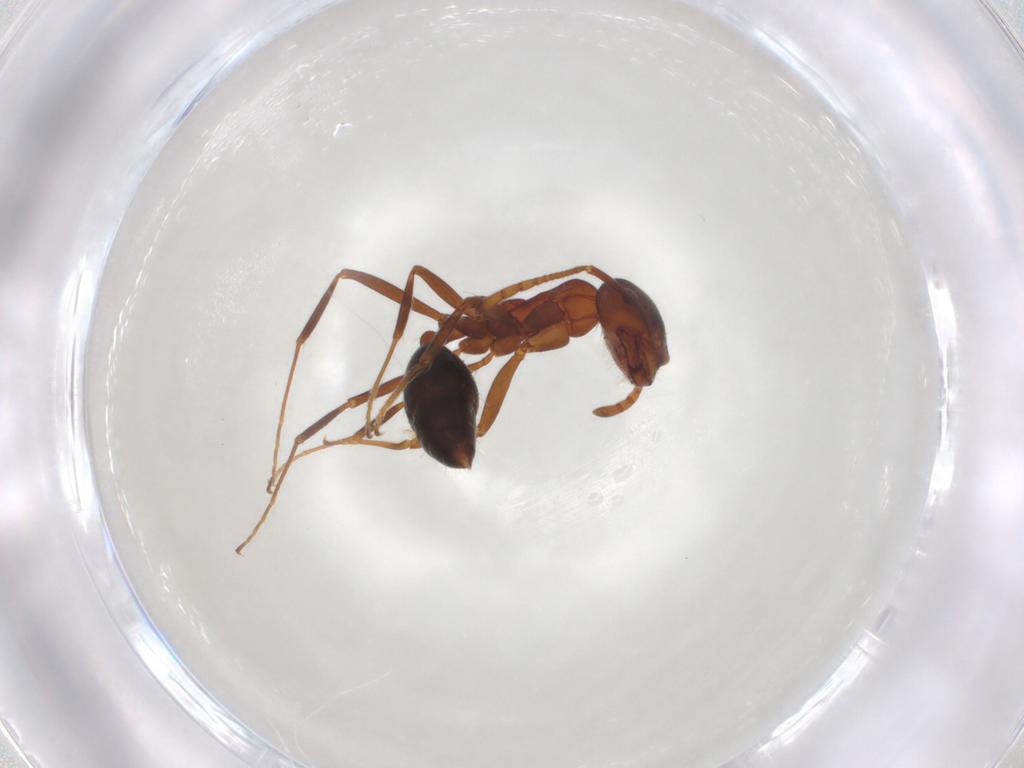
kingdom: Animalia
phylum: Arthropoda
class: Insecta
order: Hymenoptera
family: Formicidae
